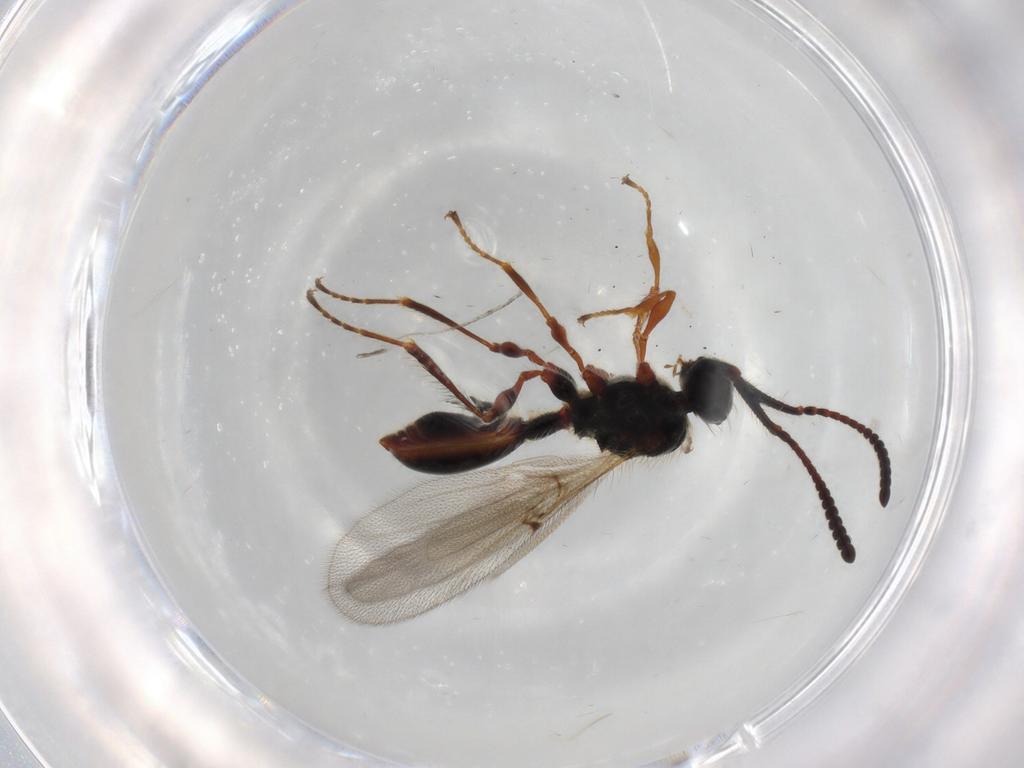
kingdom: Animalia
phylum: Arthropoda
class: Insecta
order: Hymenoptera
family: Diapriidae
